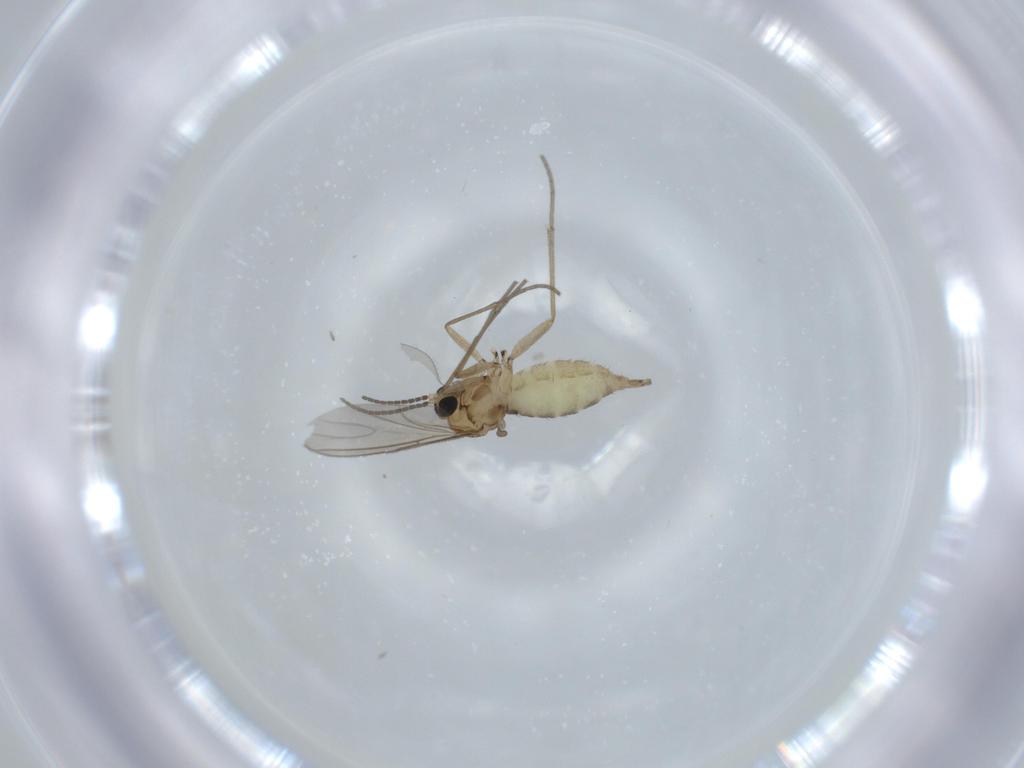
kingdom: Animalia
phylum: Arthropoda
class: Insecta
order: Diptera
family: Sciaridae
